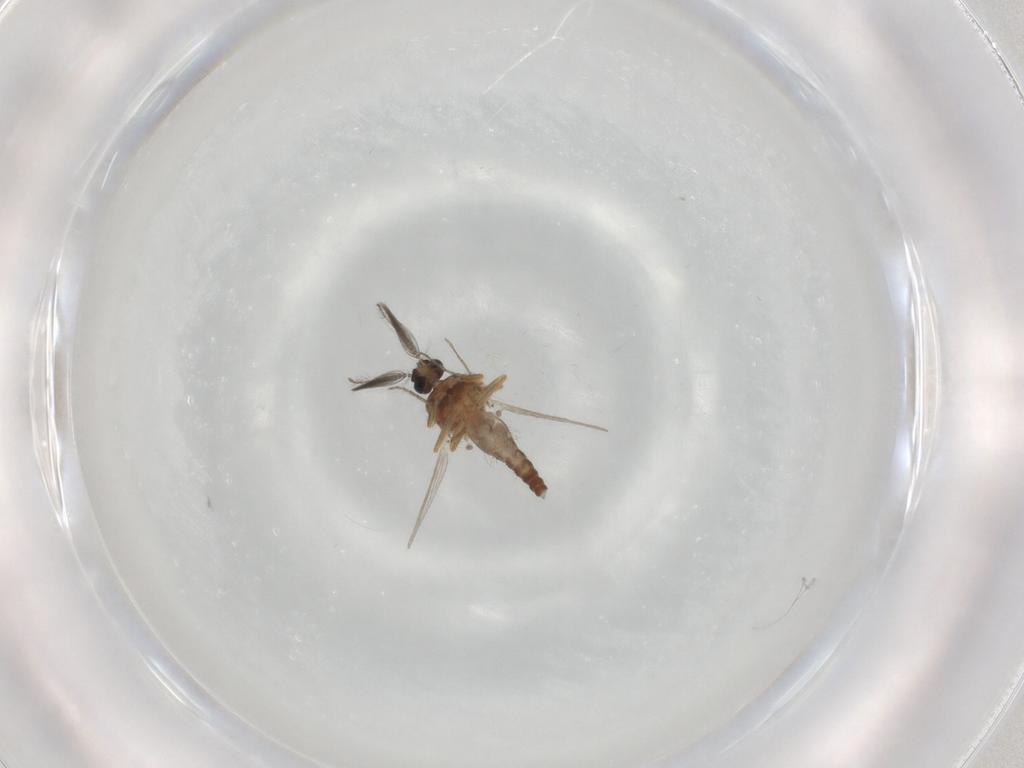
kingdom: Animalia
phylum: Arthropoda
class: Insecta
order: Diptera
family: Ceratopogonidae
